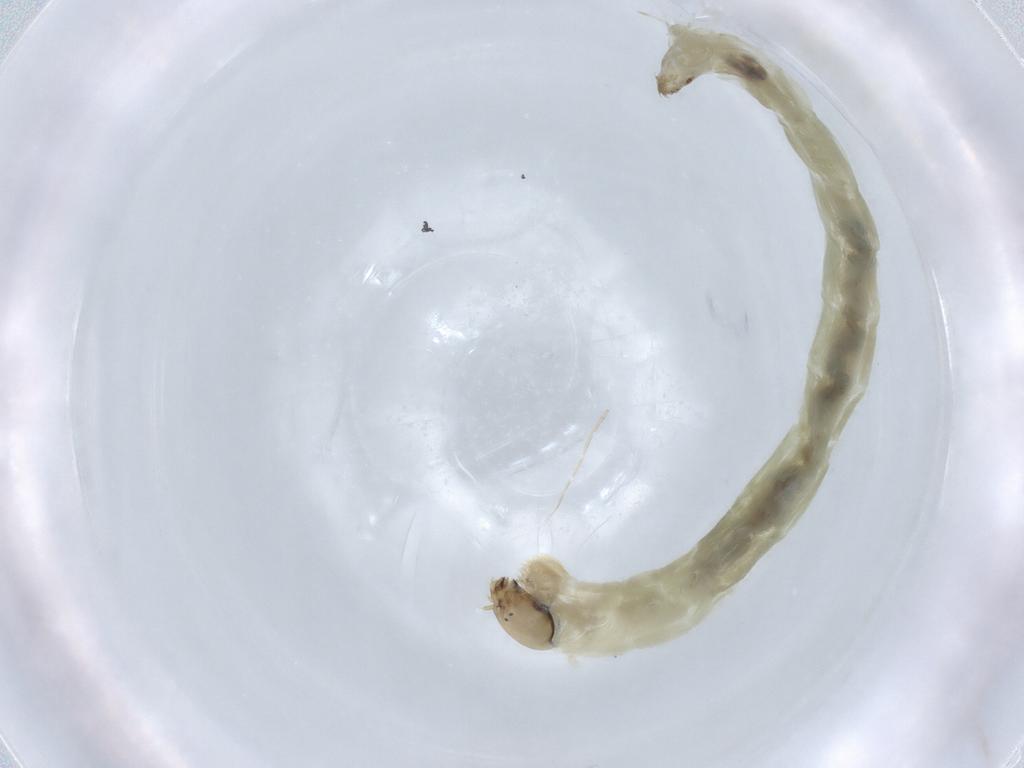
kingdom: Animalia
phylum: Arthropoda
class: Insecta
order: Diptera
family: Chironomidae
